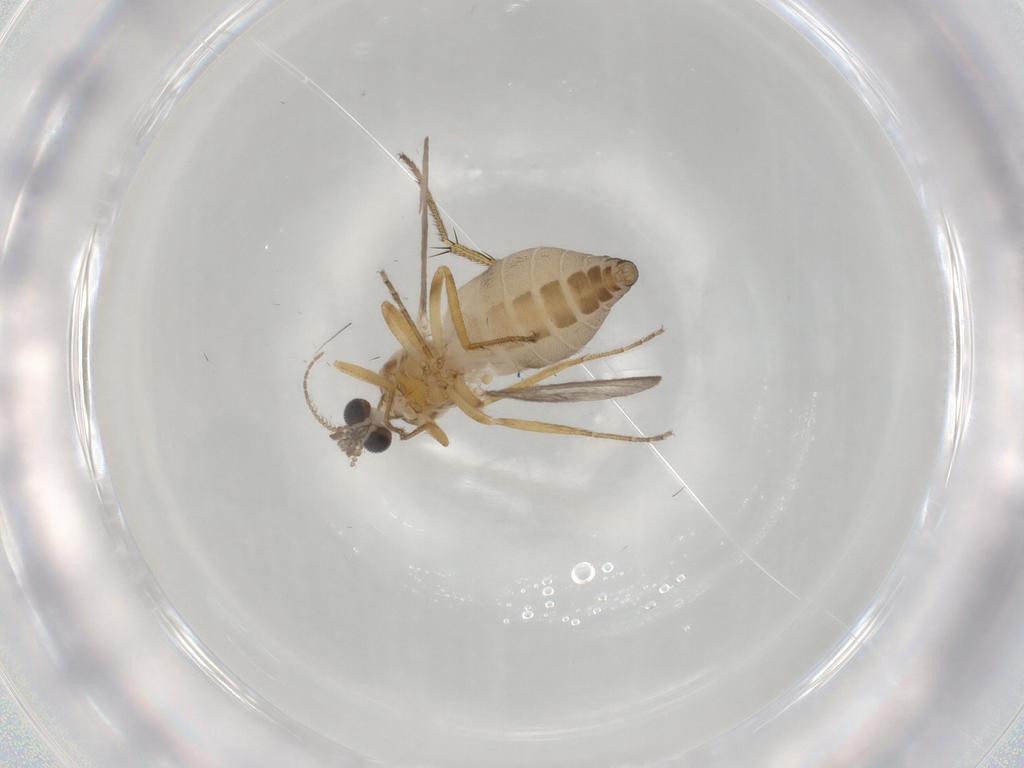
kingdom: Animalia
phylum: Arthropoda
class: Insecta
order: Diptera
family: Ceratopogonidae
